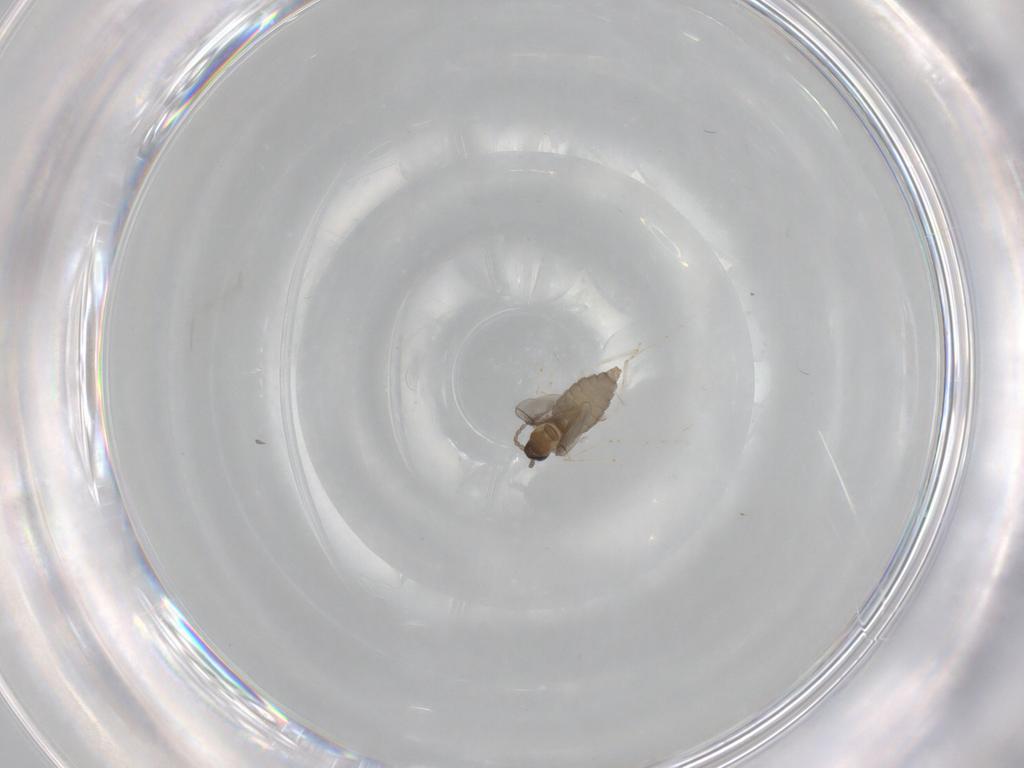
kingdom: Animalia
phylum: Arthropoda
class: Insecta
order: Diptera
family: Cecidomyiidae
